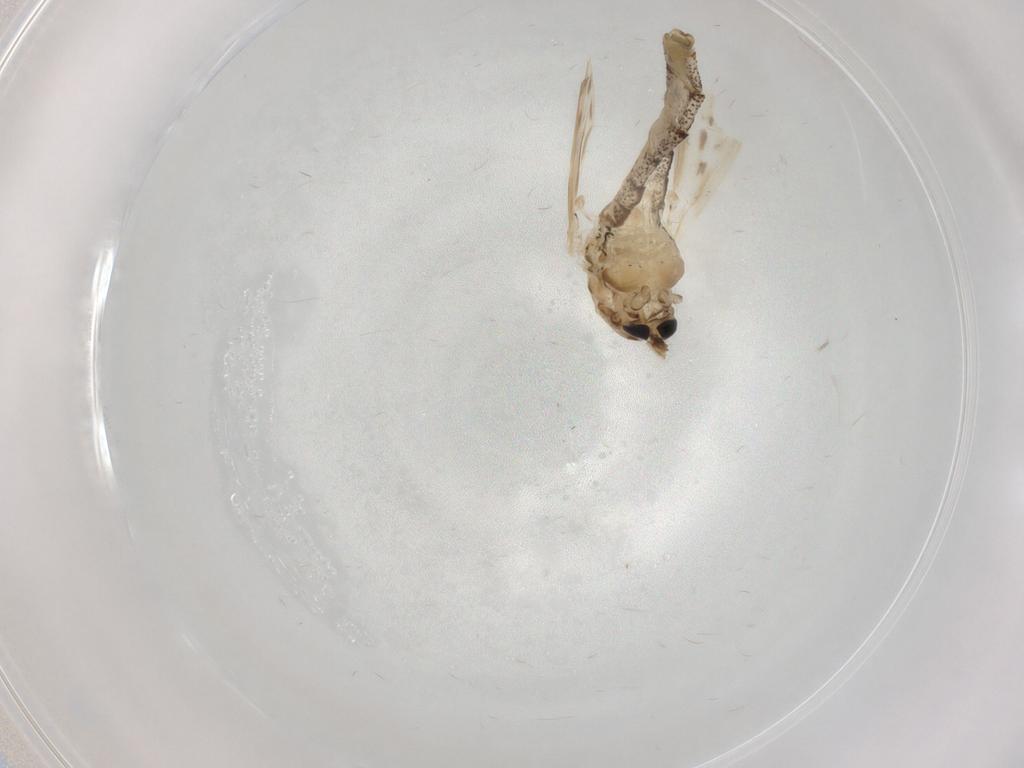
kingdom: Animalia
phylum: Arthropoda
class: Insecta
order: Diptera
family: Chaoboridae
